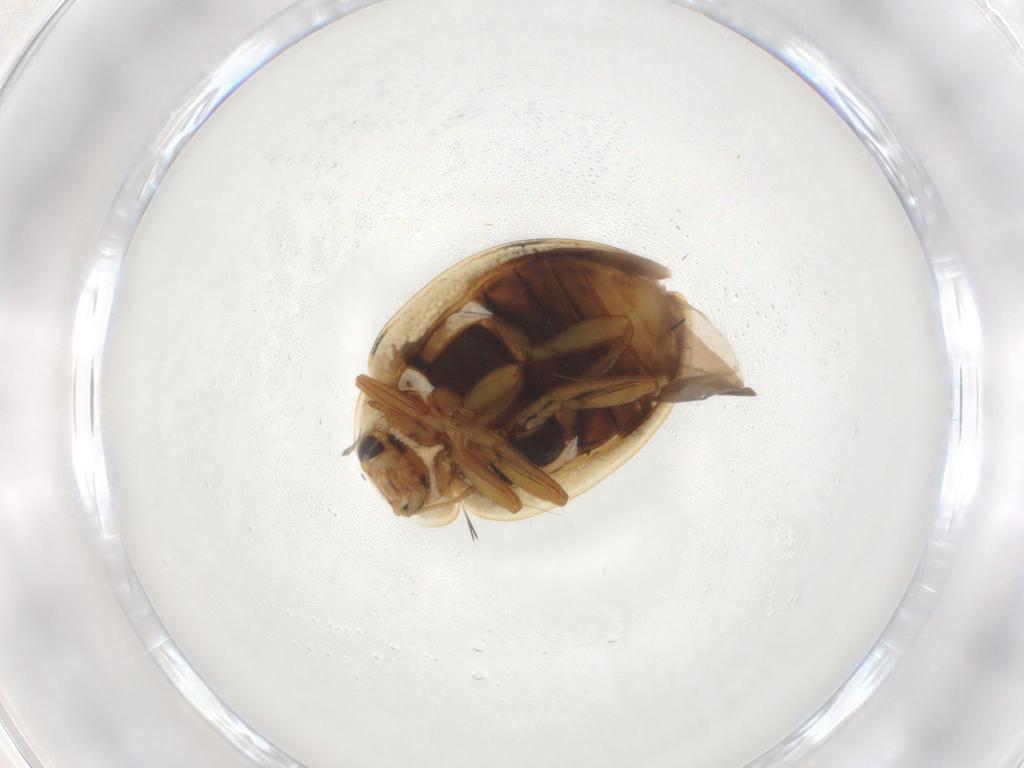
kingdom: Animalia
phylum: Arthropoda
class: Insecta
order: Coleoptera
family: Coccinellidae
